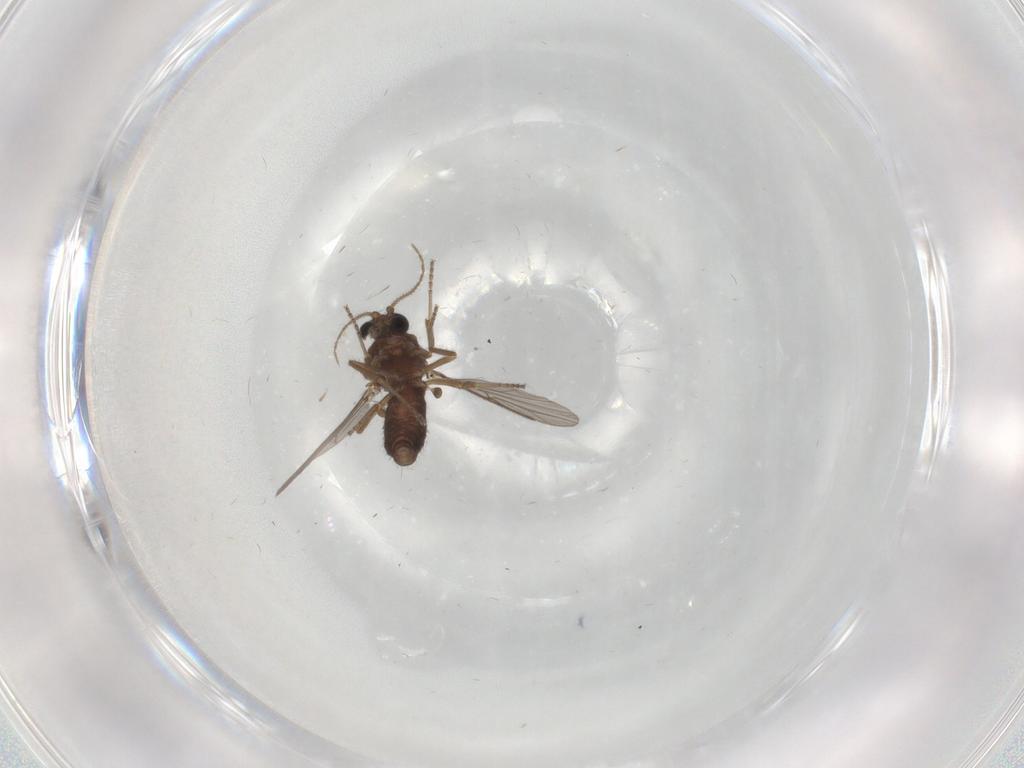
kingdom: Animalia
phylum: Arthropoda
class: Insecta
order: Diptera
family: Ceratopogonidae
